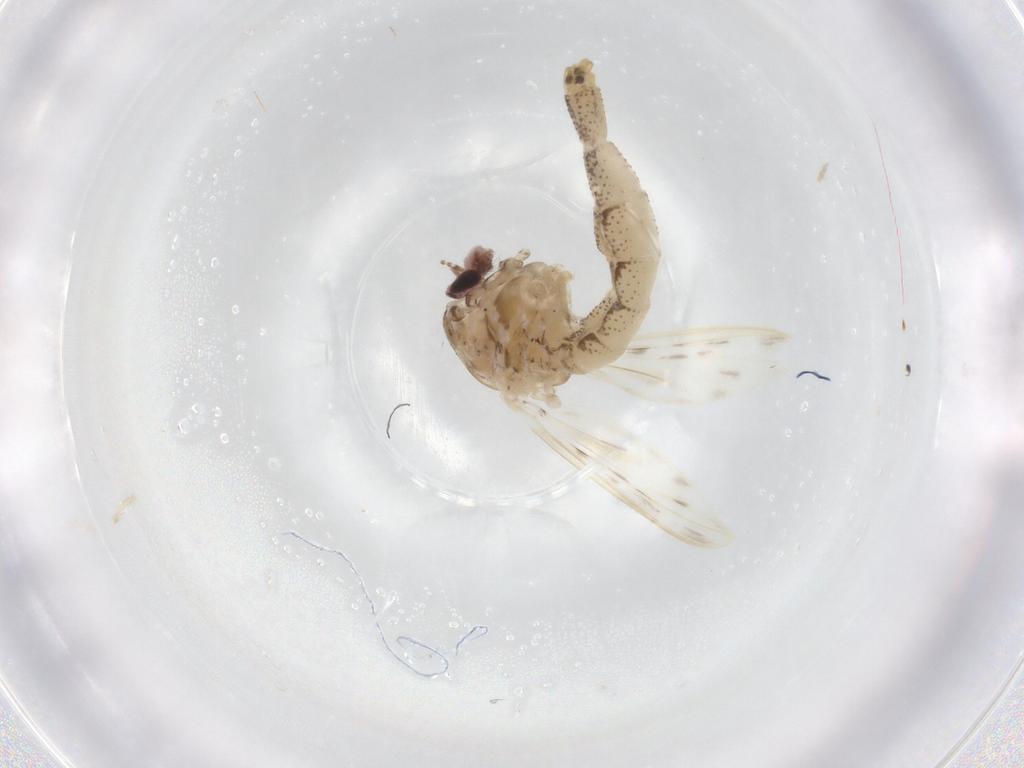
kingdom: Animalia
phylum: Arthropoda
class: Insecta
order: Diptera
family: Chaoboridae
